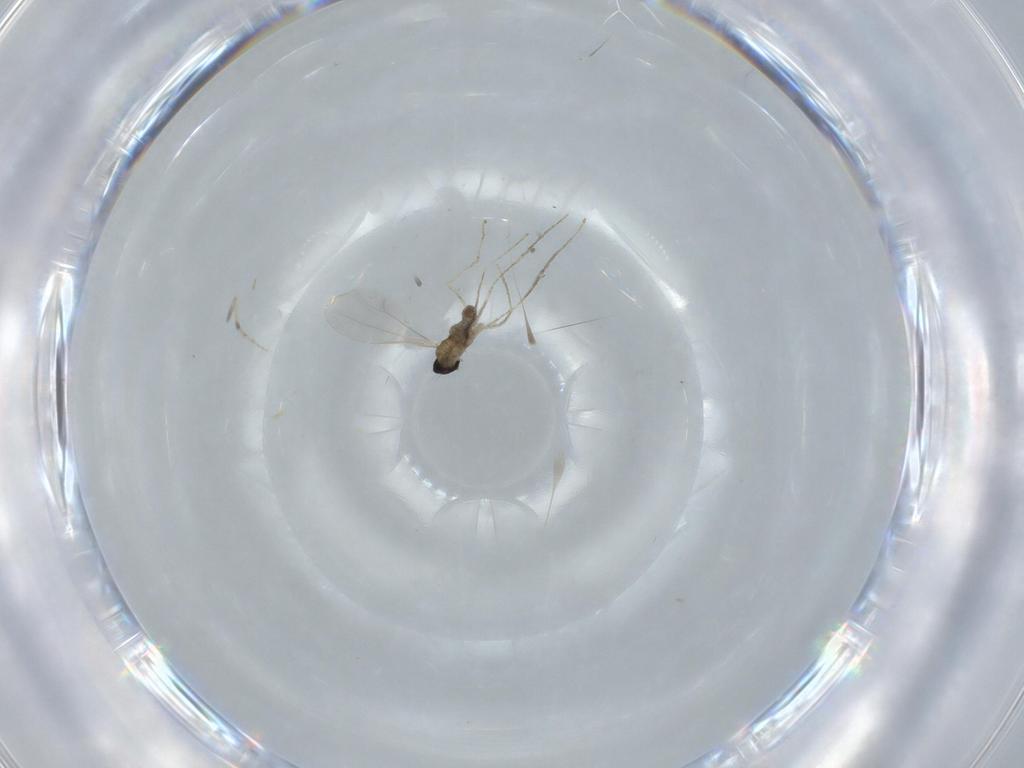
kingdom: Animalia
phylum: Arthropoda
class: Insecta
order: Diptera
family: Cecidomyiidae
